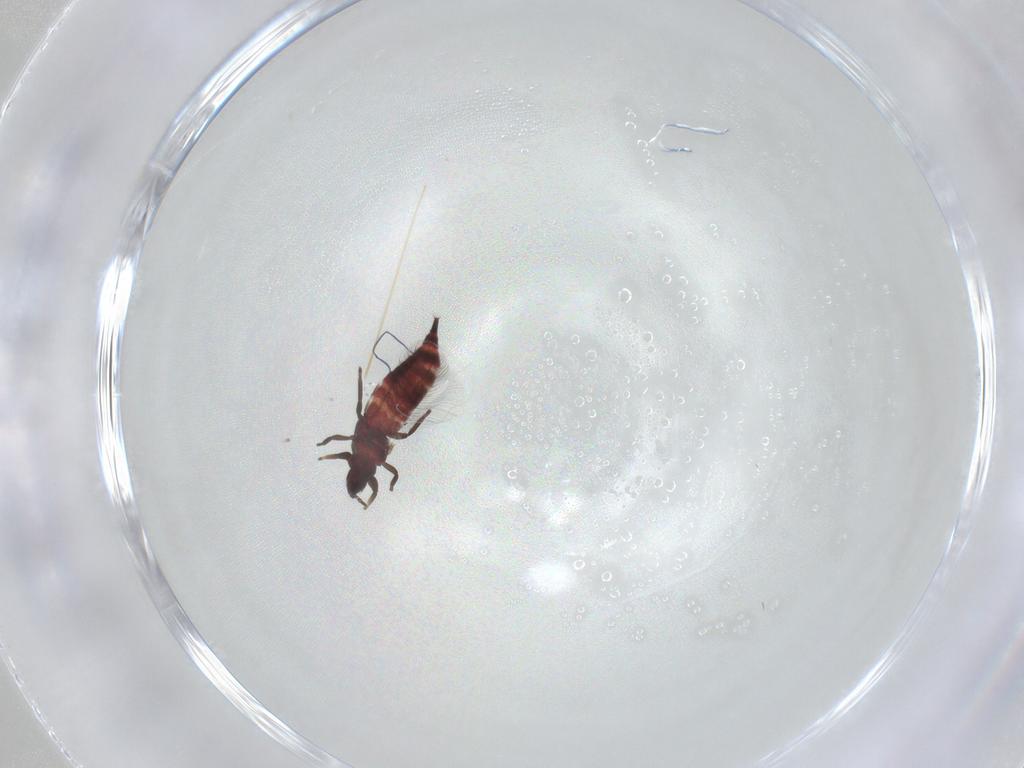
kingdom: Animalia
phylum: Arthropoda
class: Insecta
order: Thysanoptera
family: Phlaeothripidae
